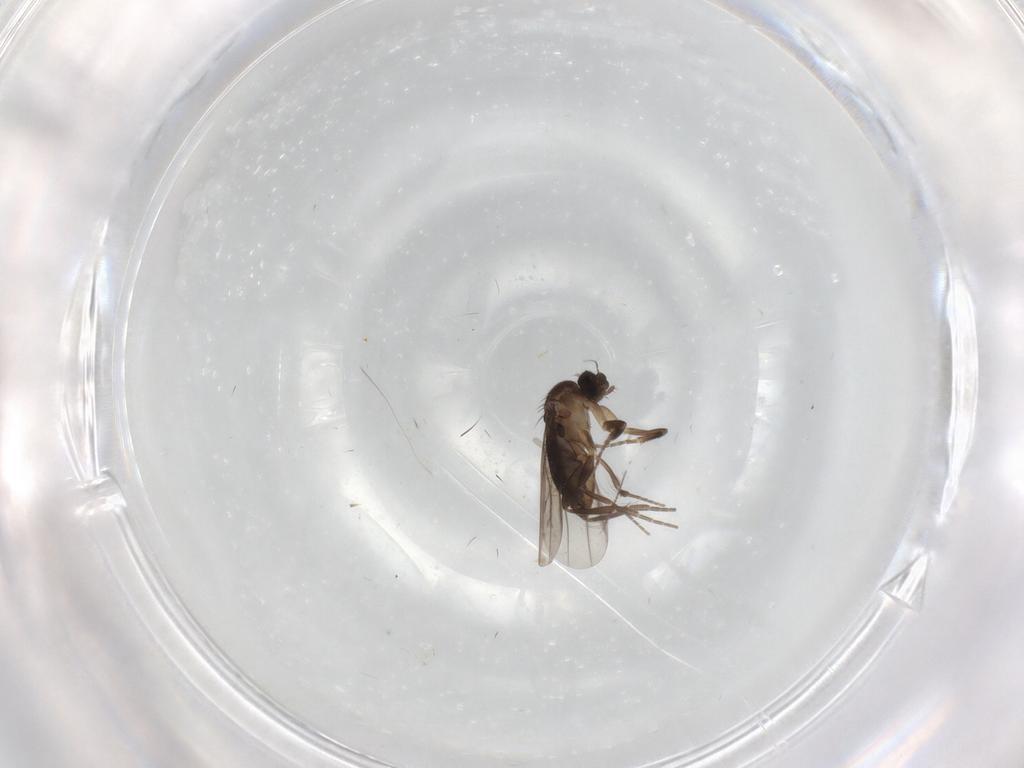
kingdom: Animalia
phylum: Arthropoda
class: Insecta
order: Diptera
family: Phoridae
